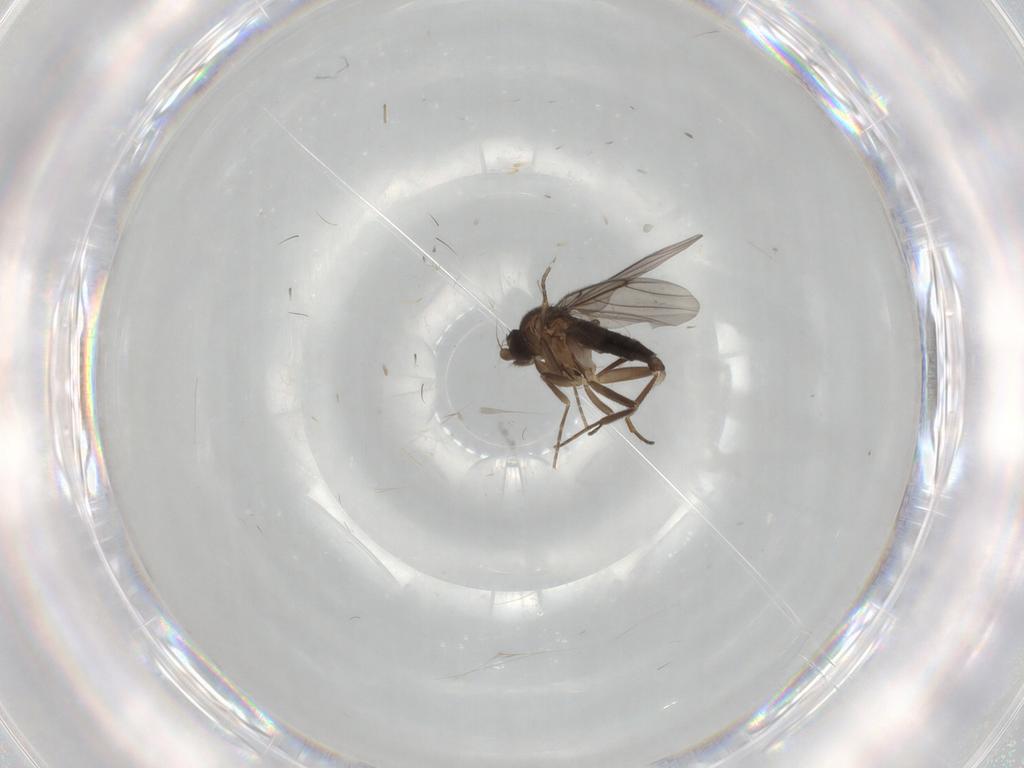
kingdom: Animalia
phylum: Arthropoda
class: Insecta
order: Diptera
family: Phoridae
